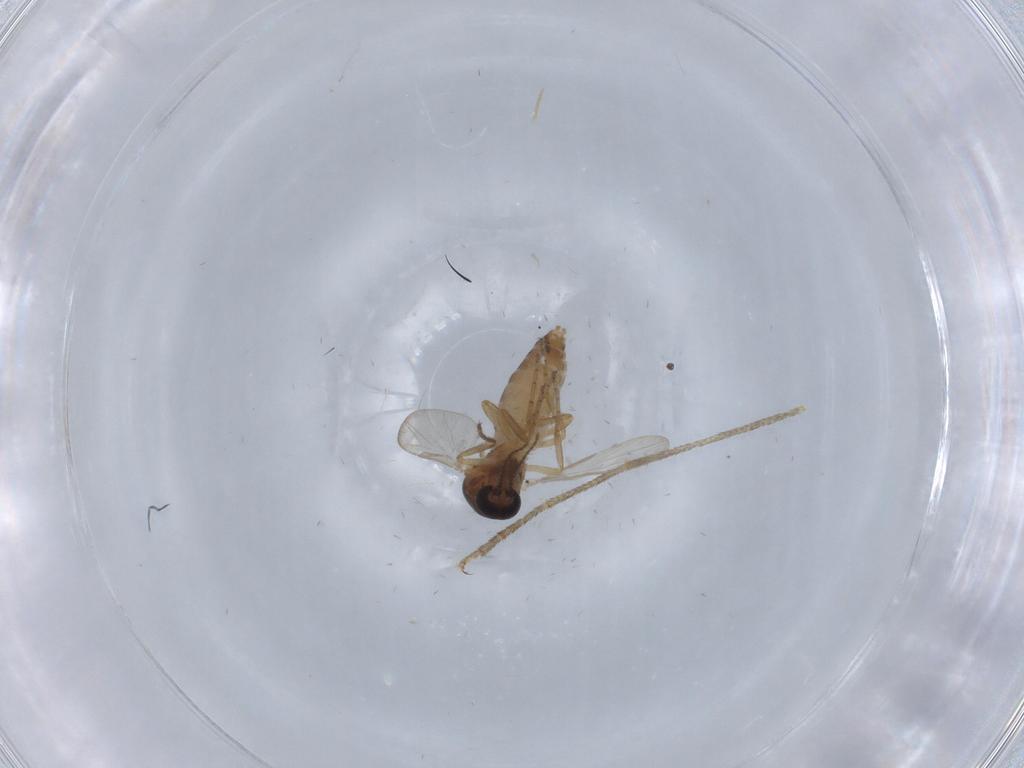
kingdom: Animalia
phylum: Arthropoda
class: Insecta
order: Diptera
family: Ceratopogonidae
